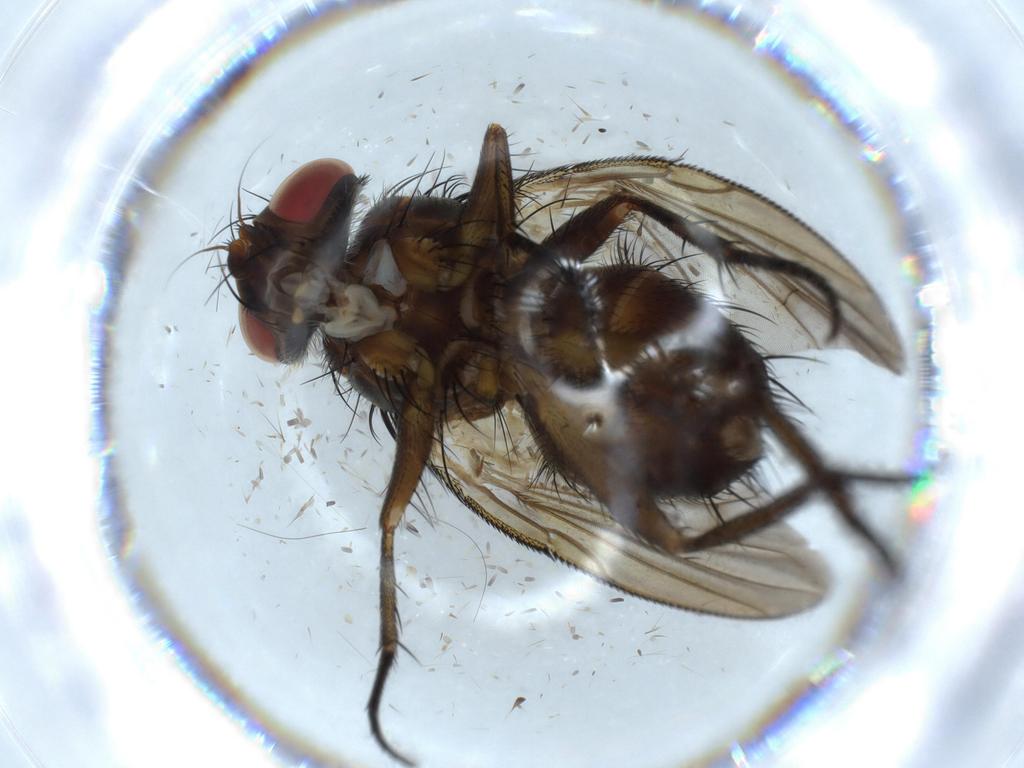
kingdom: Animalia
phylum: Arthropoda
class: Insecta
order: Diptera
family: Sciaridae
